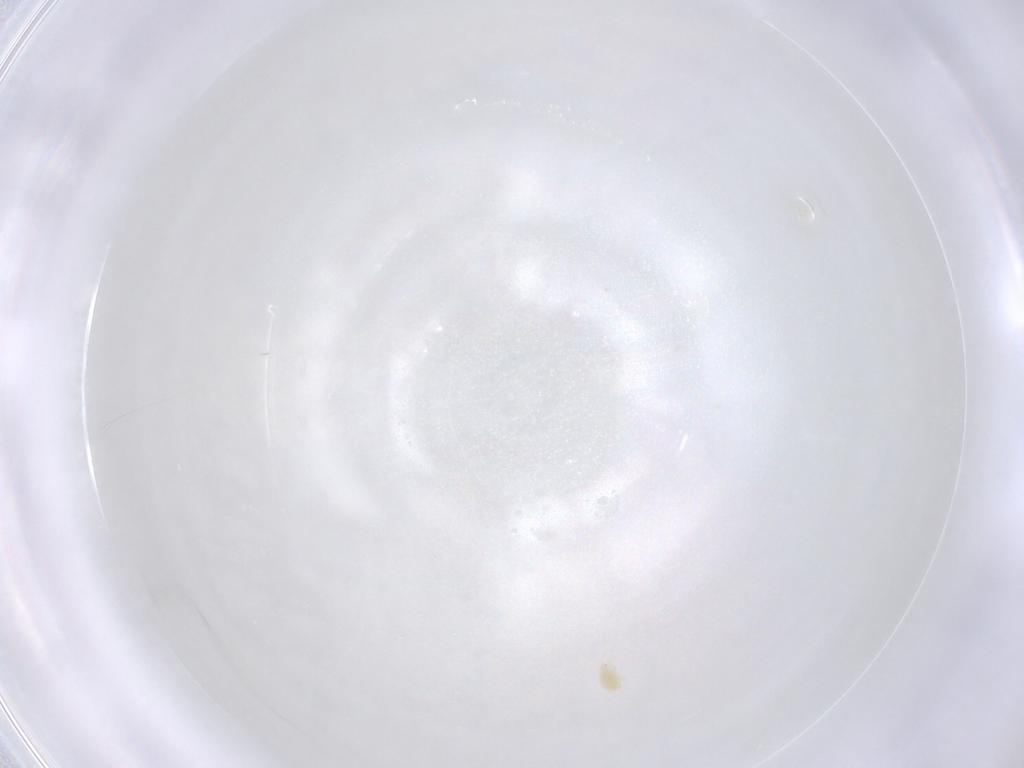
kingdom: Animalia
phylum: Arthropoda
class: Arachnida
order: Trombidiformes
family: Tetranychidae
